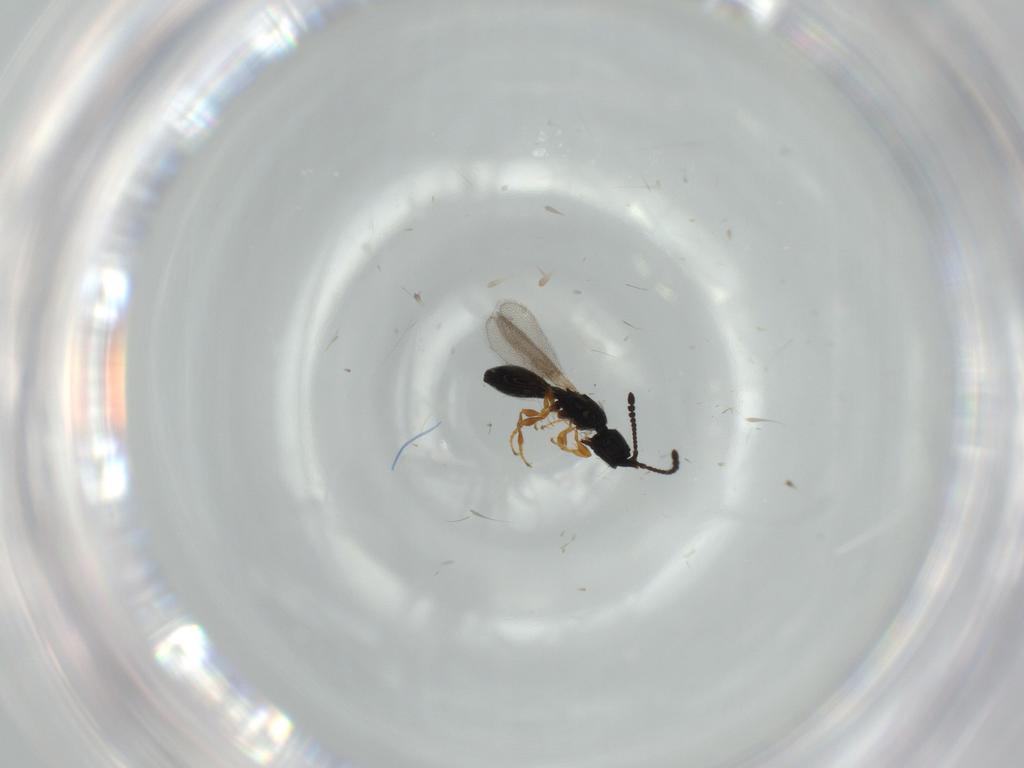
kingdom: Animalia
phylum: Arthropoda
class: Insecta
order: Hymenoptera
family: Diapriidae
